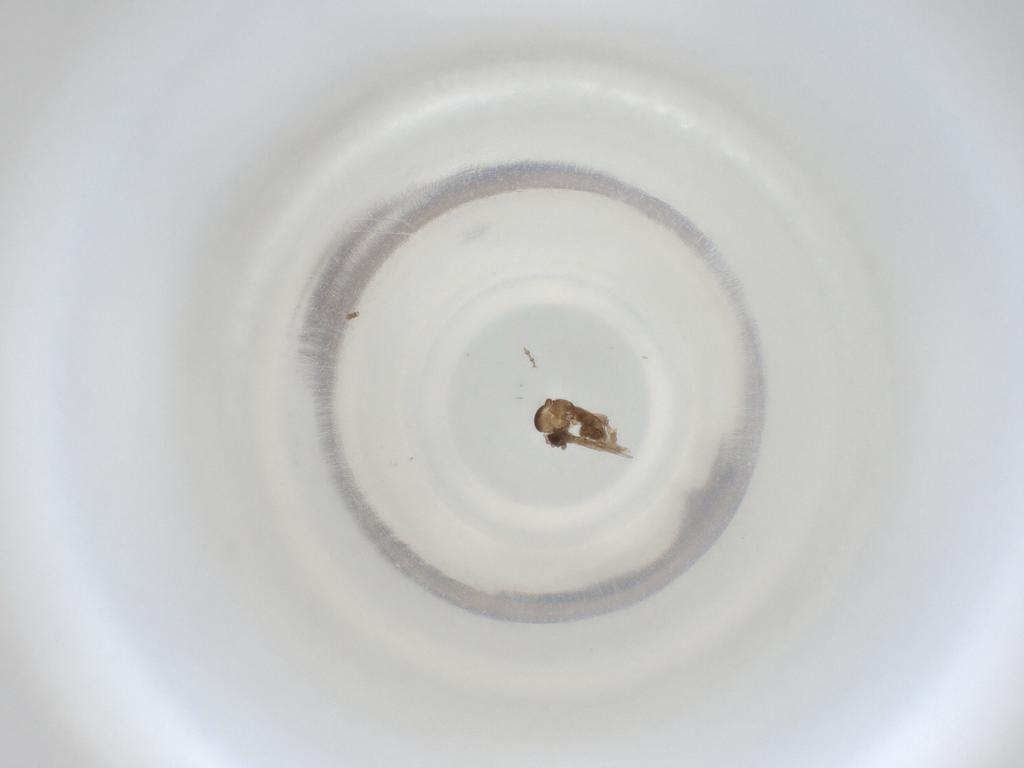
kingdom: Animalia
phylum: Arthropoda
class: Insecta
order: Diptera
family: Cecidomyiidae
